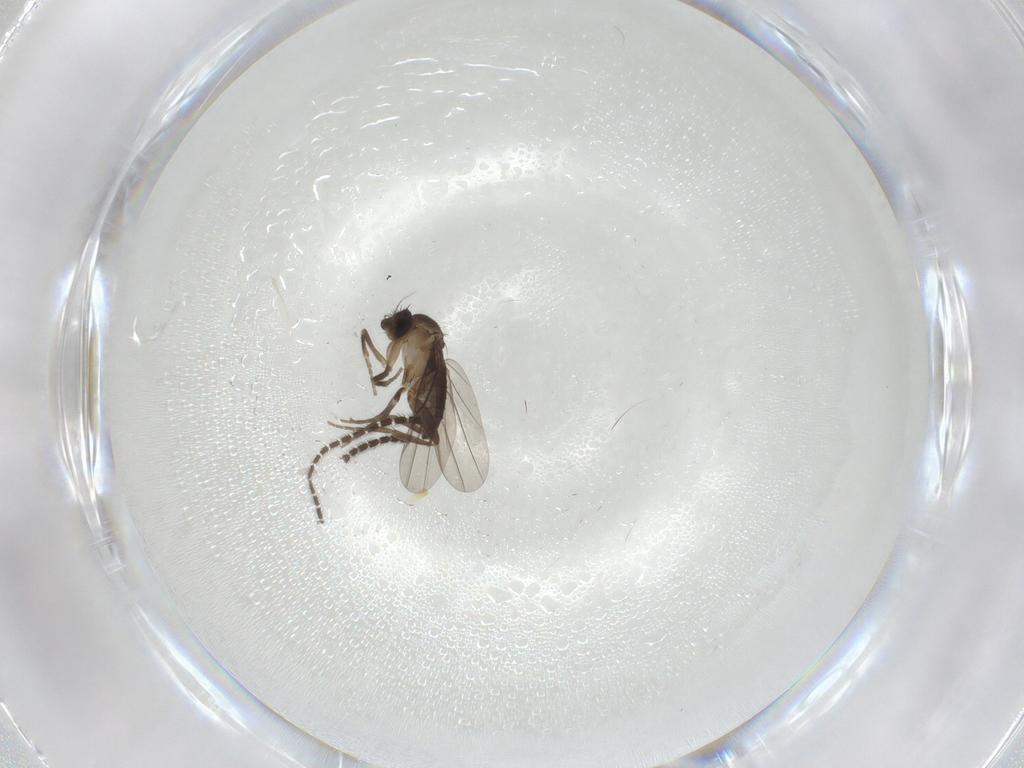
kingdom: Animalia
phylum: Arthropoda
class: Insecta
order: Diptera
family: Sciaridae
